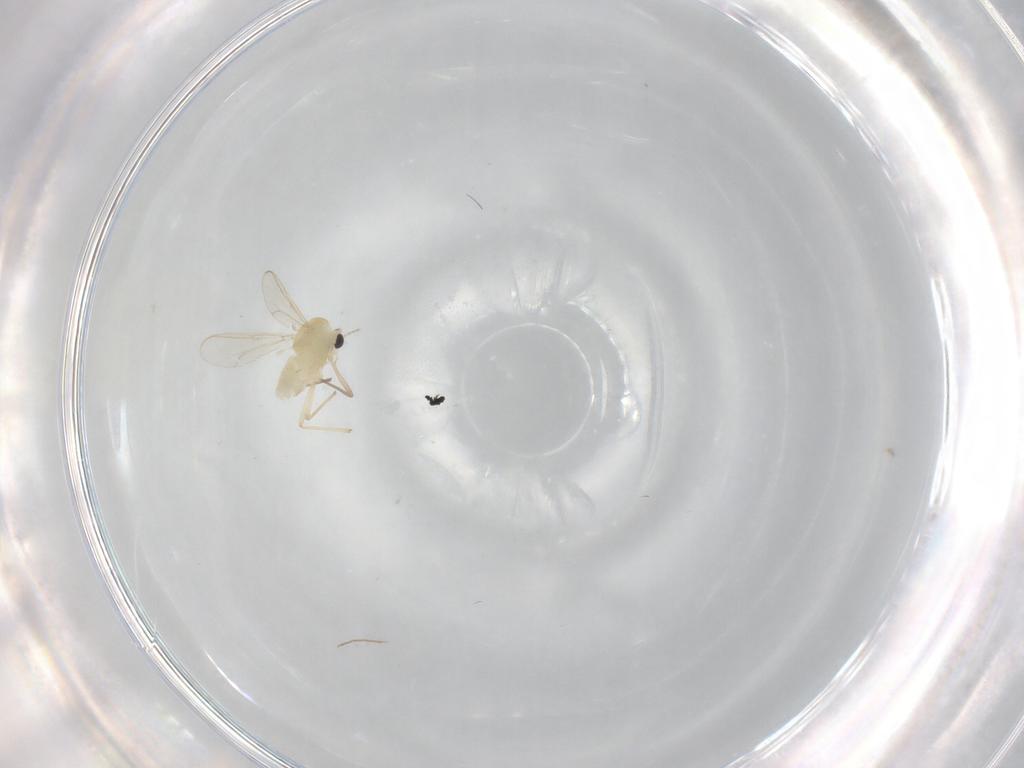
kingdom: Animalia
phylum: Arthropoda
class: Insecta
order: Diptera
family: Chironomidae
